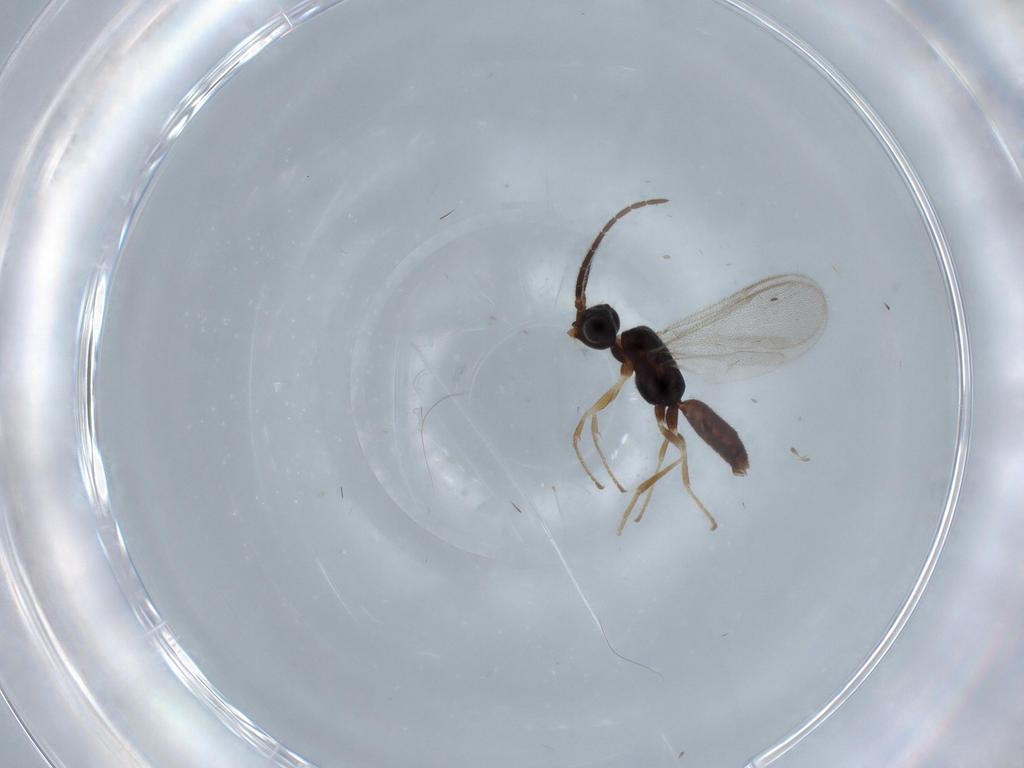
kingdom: Animalia
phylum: Arthropoda
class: Insecta
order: Hymenoptera
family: Dryinidae
